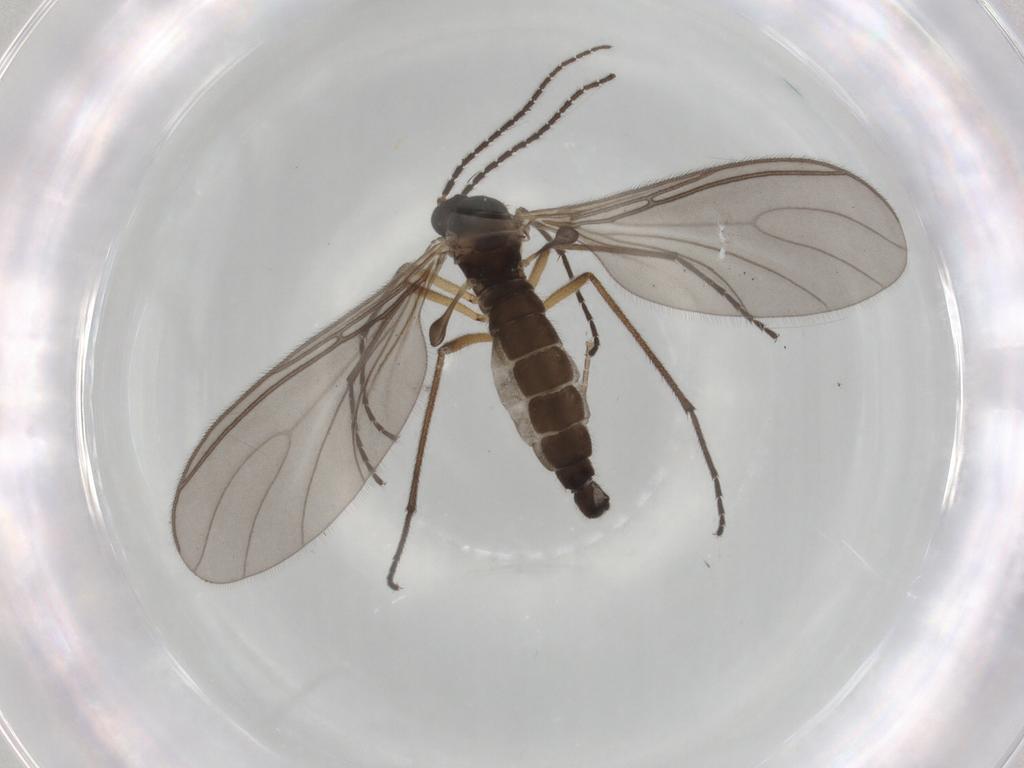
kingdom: Animalia
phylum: Arthropoda
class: Insecta
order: Diptera
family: Sciaridae
